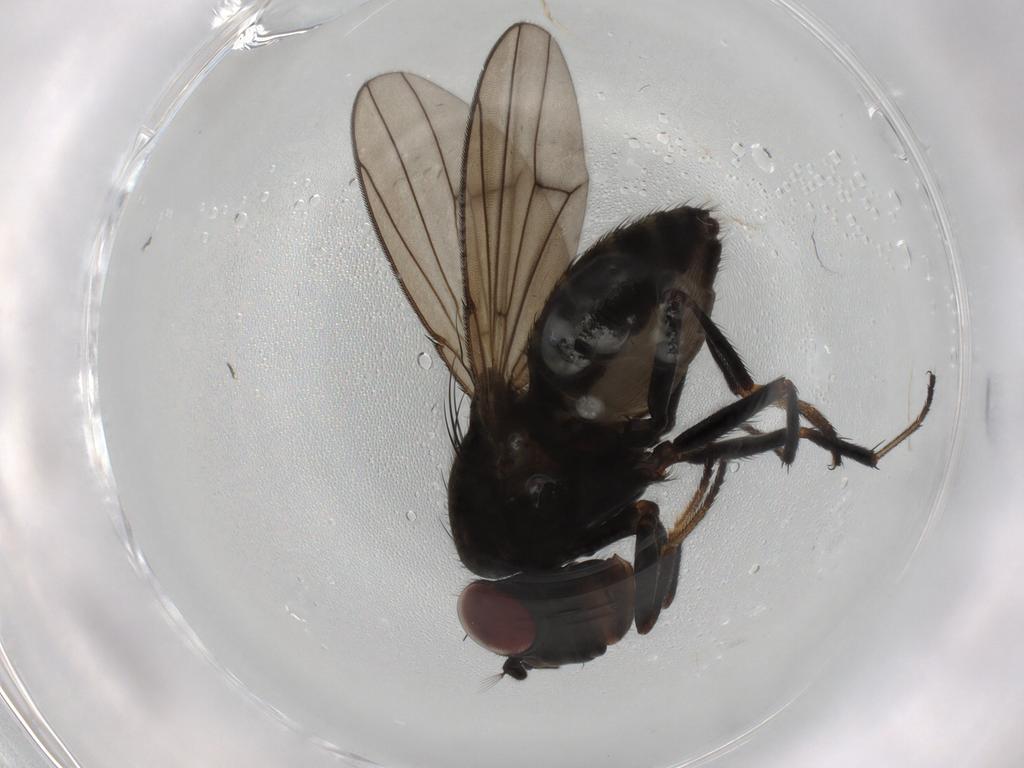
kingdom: Animalia
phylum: Arthropoda
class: Insecta
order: Diptera
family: Ephydridae
